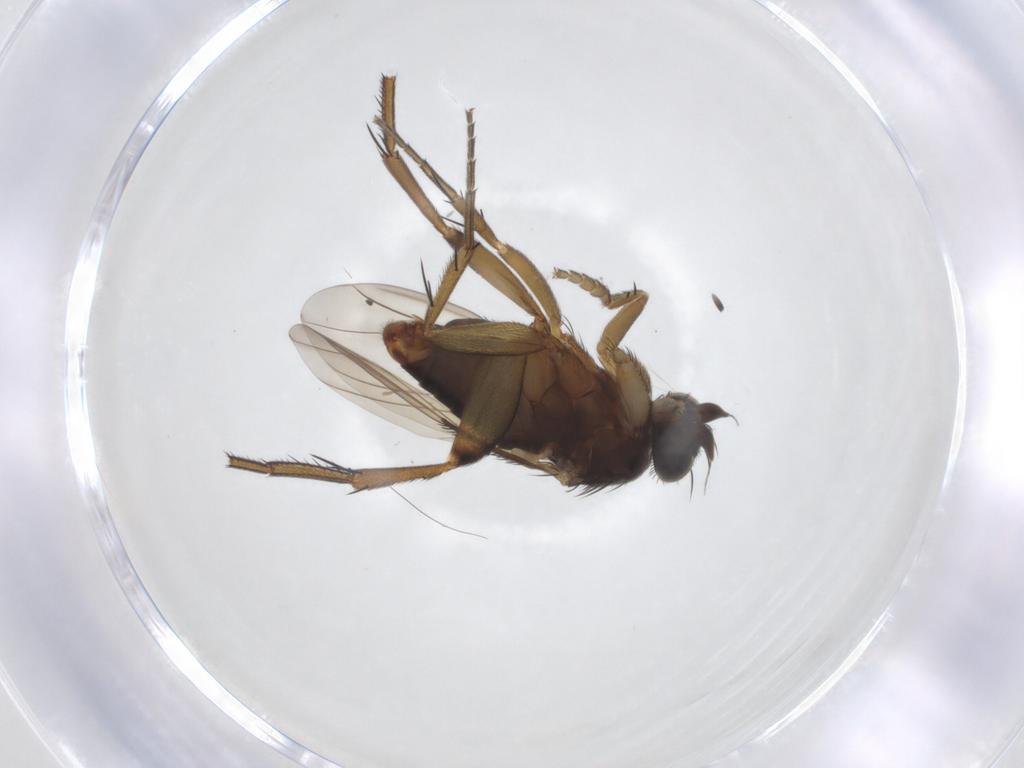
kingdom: Animalia
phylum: Arthropoda
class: Insecta
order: Diptera
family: Phoridae
